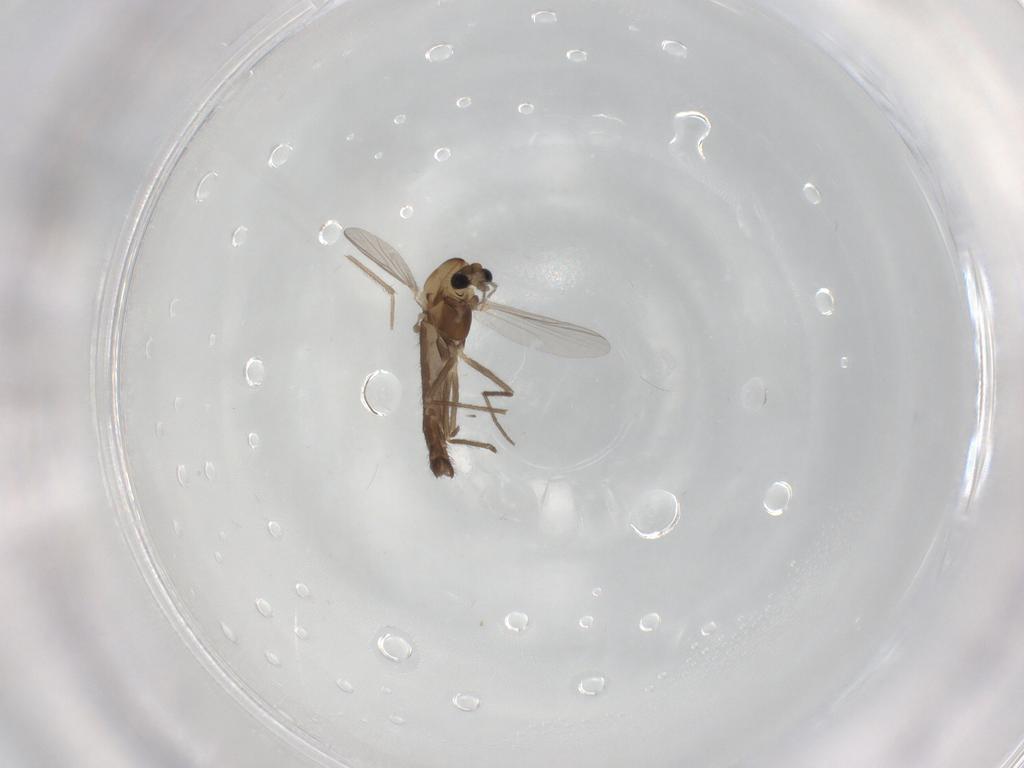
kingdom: Animalia
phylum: Arthropoda
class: Insecta
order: Diptera
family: Chironomidae
